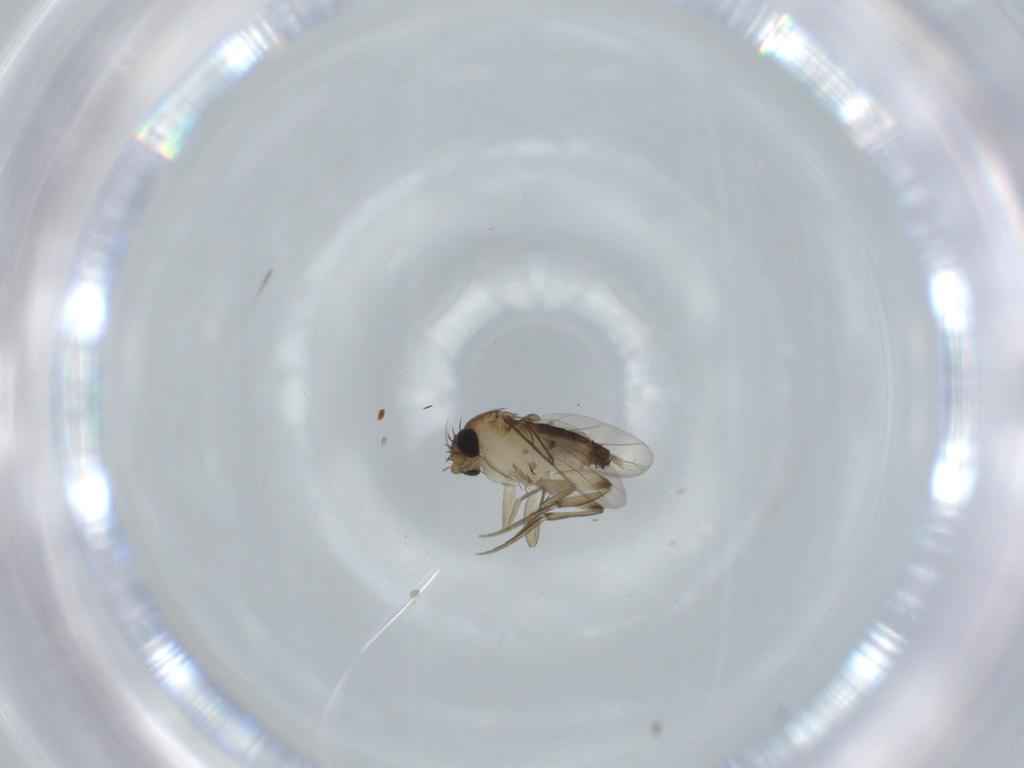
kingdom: Animalia
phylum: Arthropoda
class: Insecta
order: Diptera
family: Phoridae
